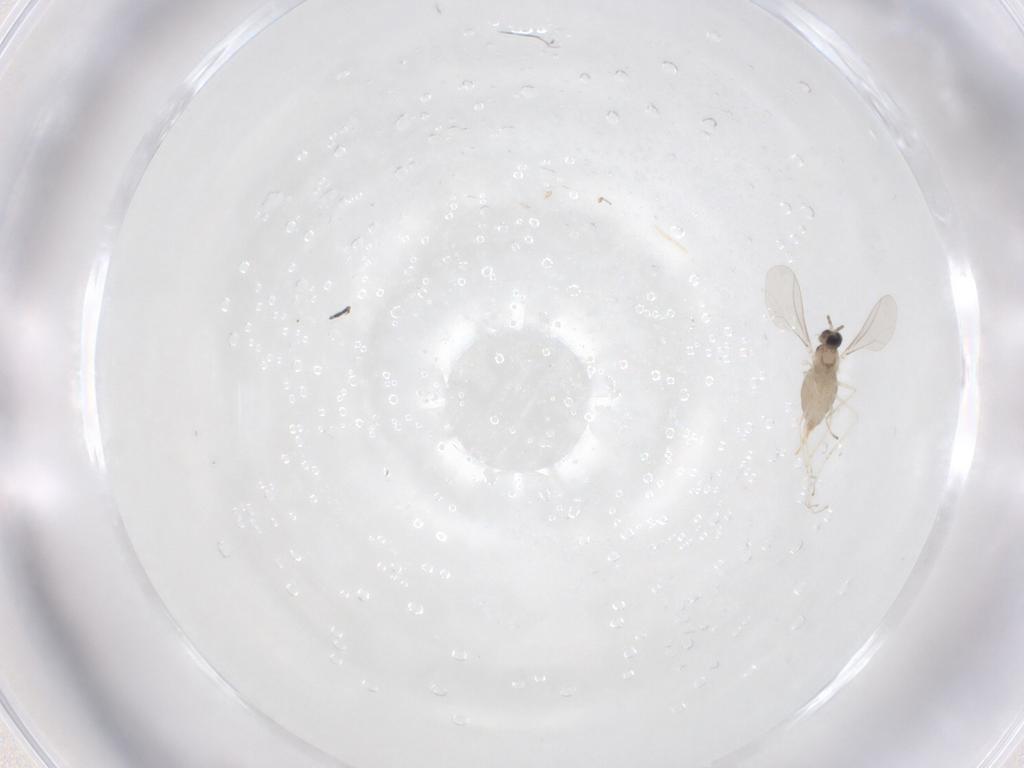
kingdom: Animalia
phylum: Arthropoda
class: Insecta
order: Diptera
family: Cecidomyiidae
